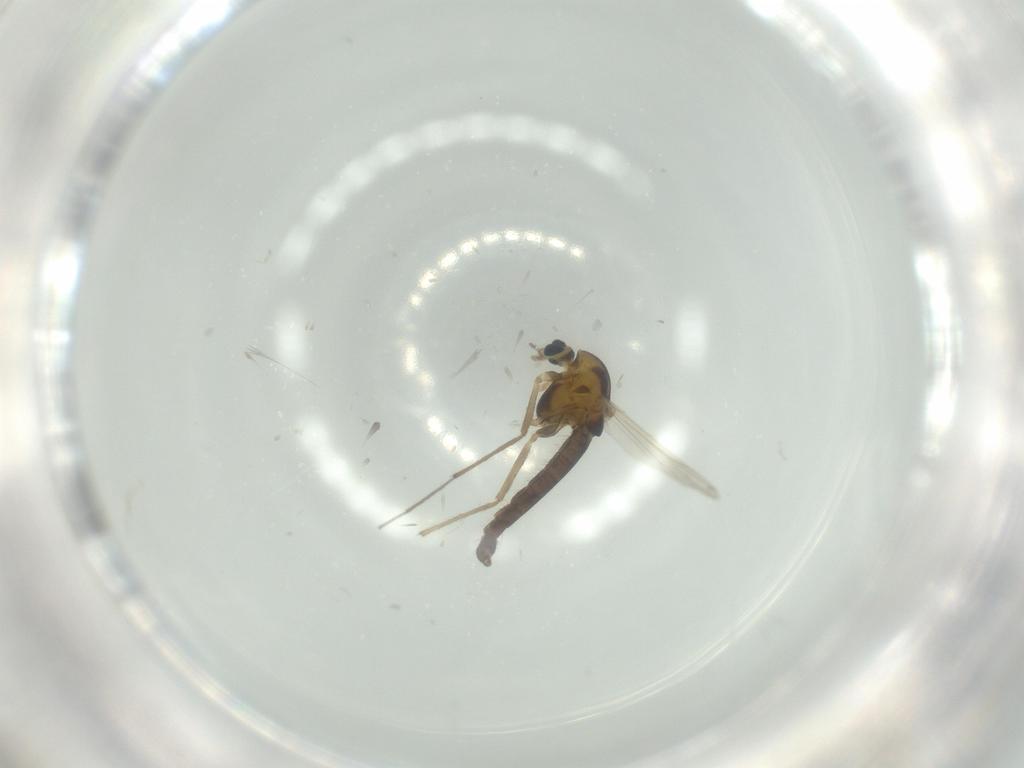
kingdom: Animalia
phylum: Arthropoda
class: Insecta
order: Diptera
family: Chironomidae
